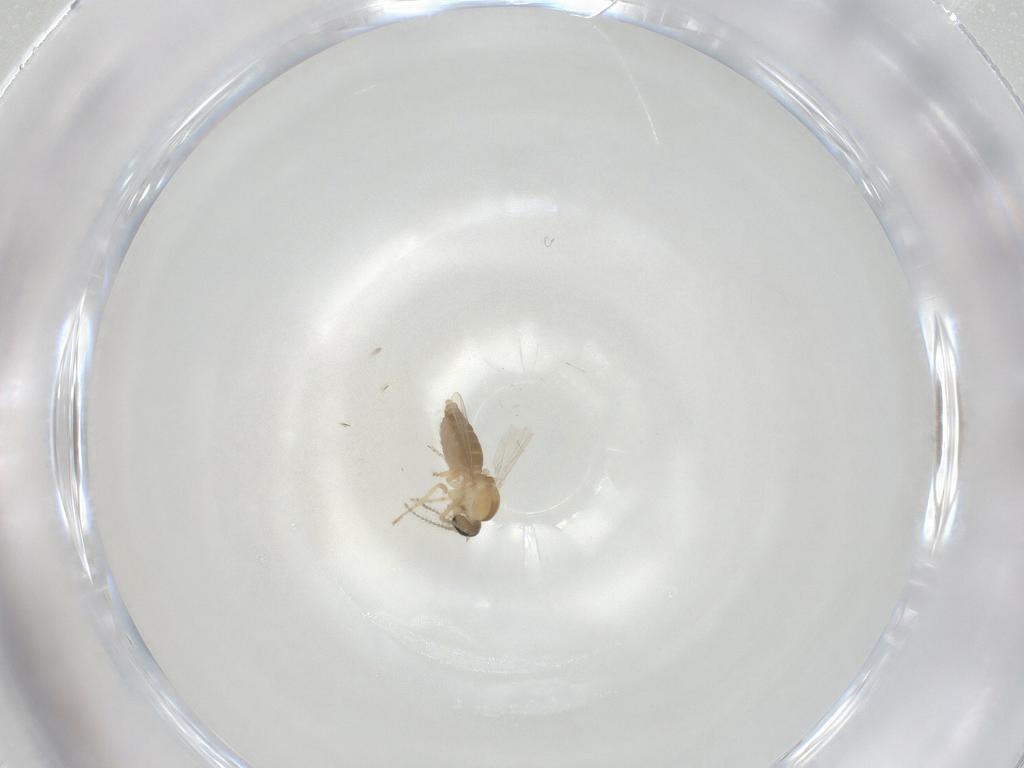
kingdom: Animalia
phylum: Arthropoda
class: Insecta
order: Diptera
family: Ceratopogonidae
